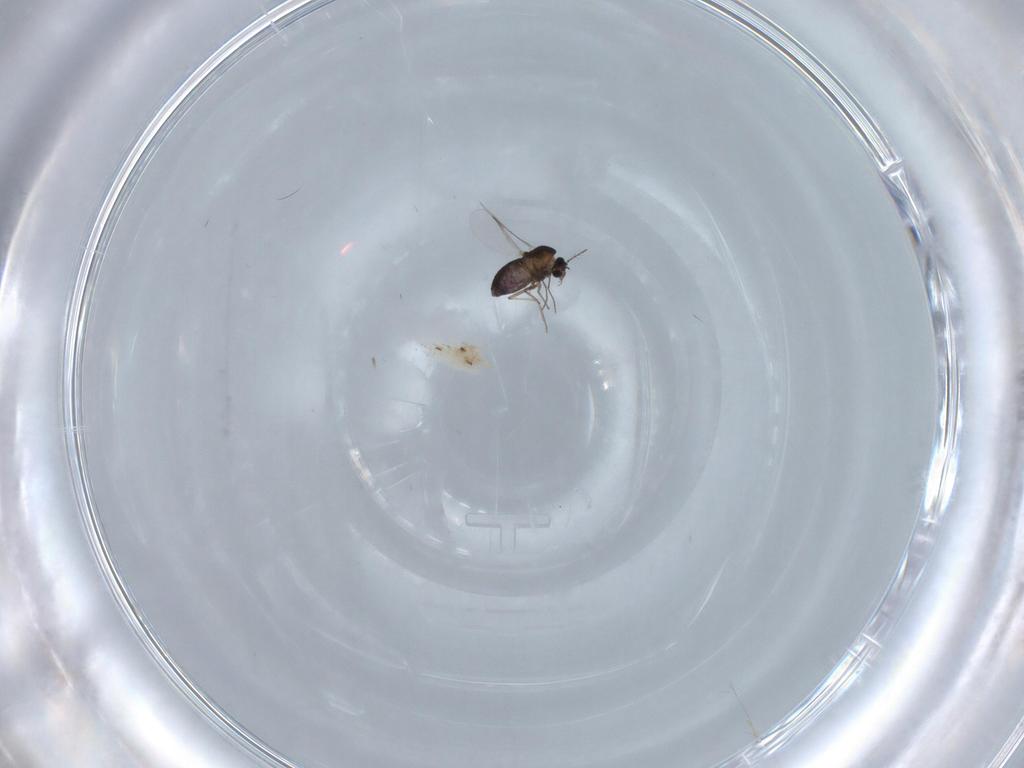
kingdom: Animalia
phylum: Arthropoda
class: Insecta
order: Diptera
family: Chironomidae
